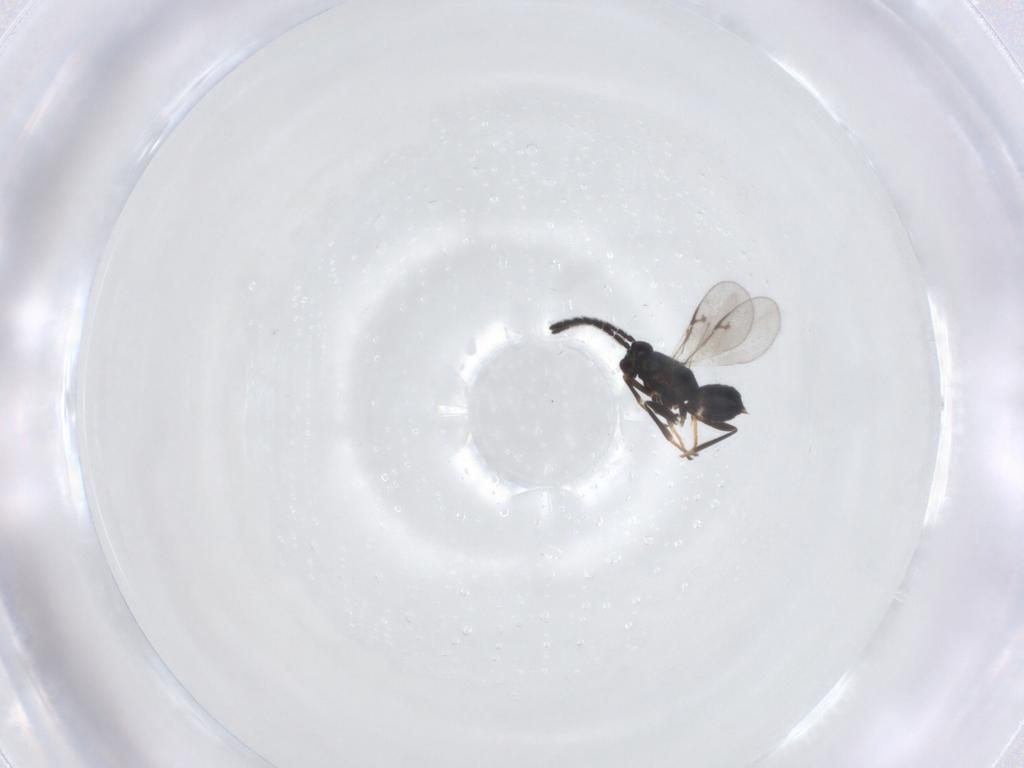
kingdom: Animalia
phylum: Arthropoda
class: Insecta
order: Hymenoptera
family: Encyrtidae
